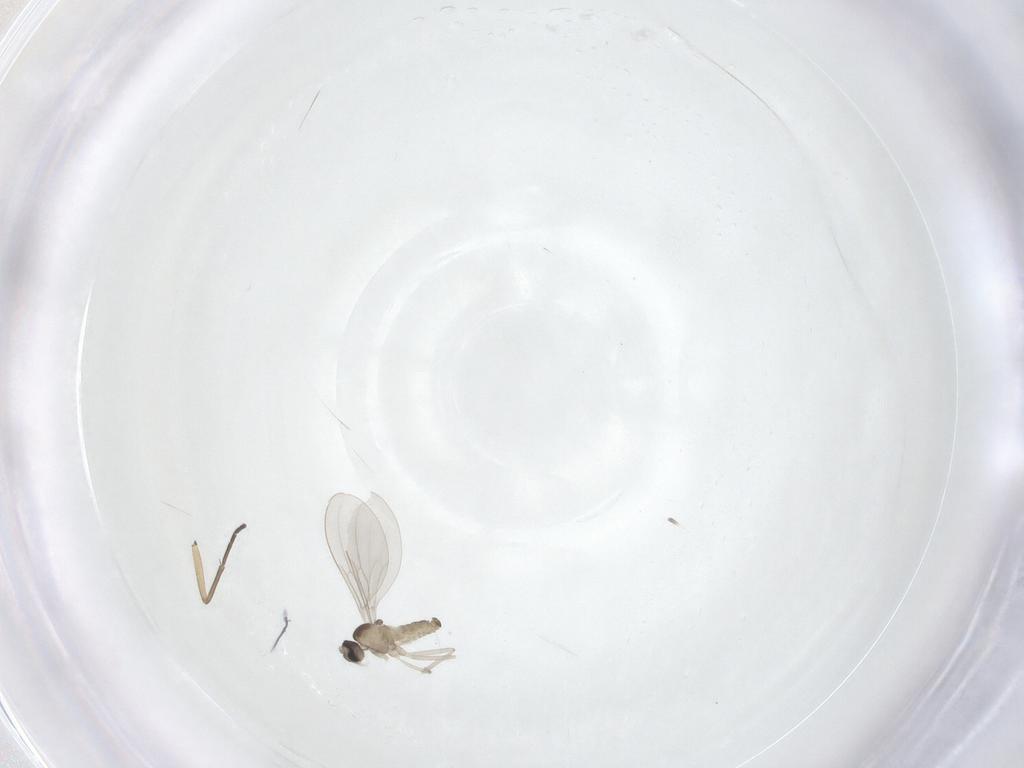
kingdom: Animalia
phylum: Arthropoda
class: Insecta
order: Diptera
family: Sciaridae
